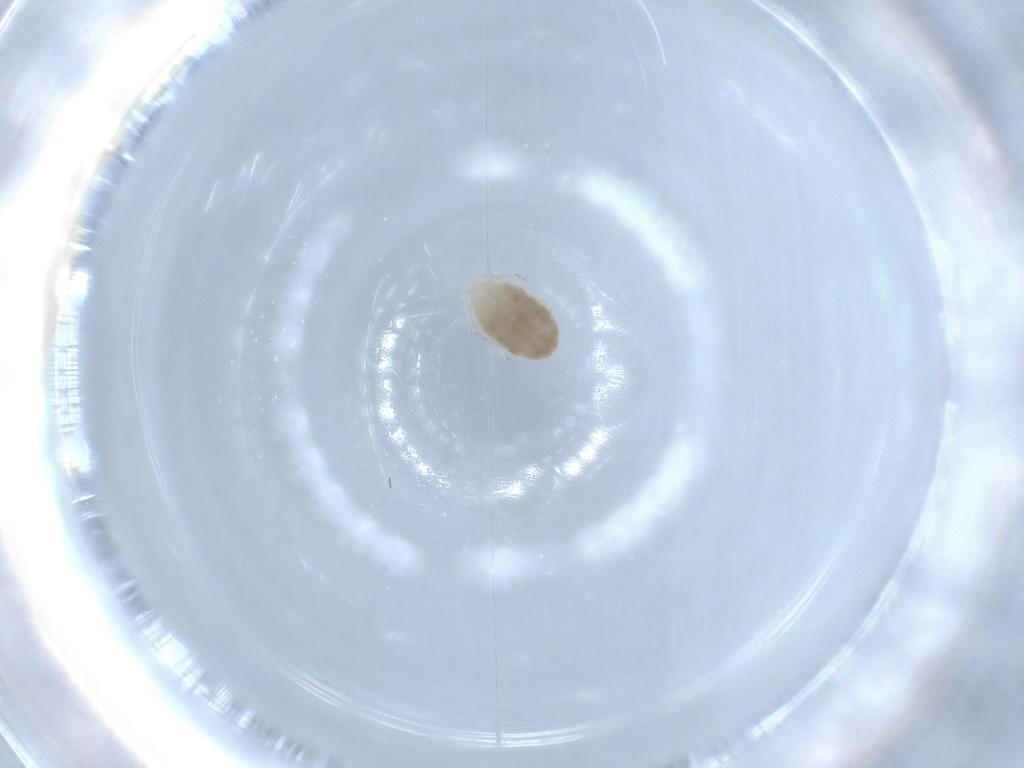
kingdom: Animalia
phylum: Arthropoda
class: Arachnida
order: Trombidiformes
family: Erythraeidae
